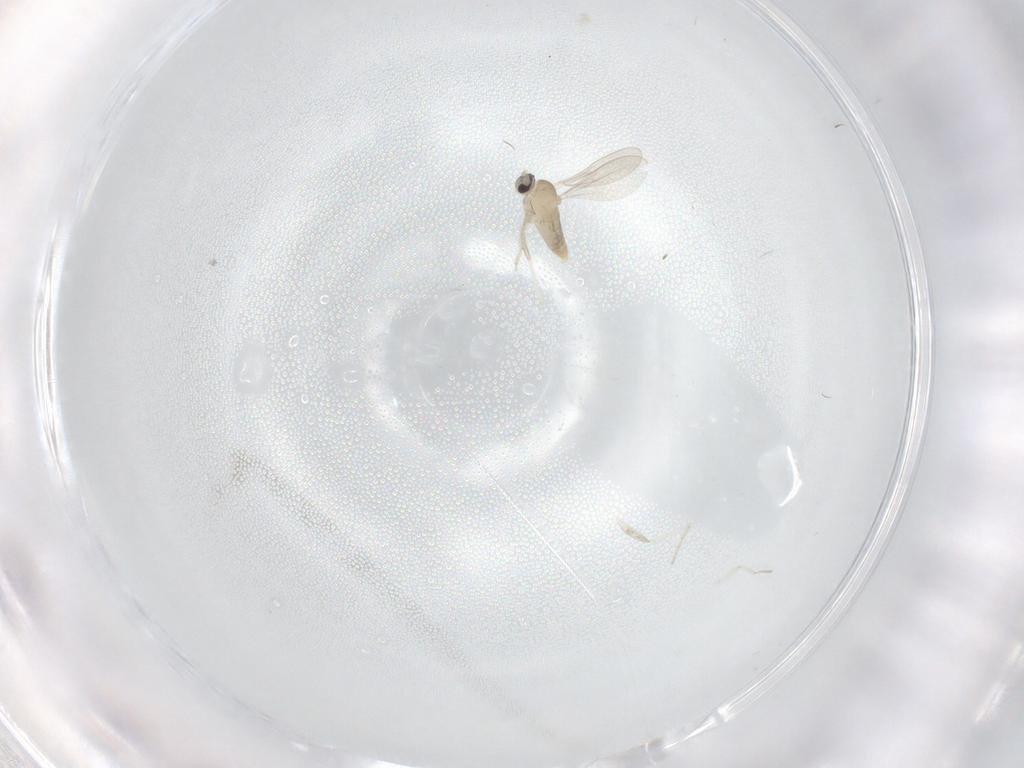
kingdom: Animalia
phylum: Arthropoda
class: Insecta
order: Diptera
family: Cecidomyiidae
